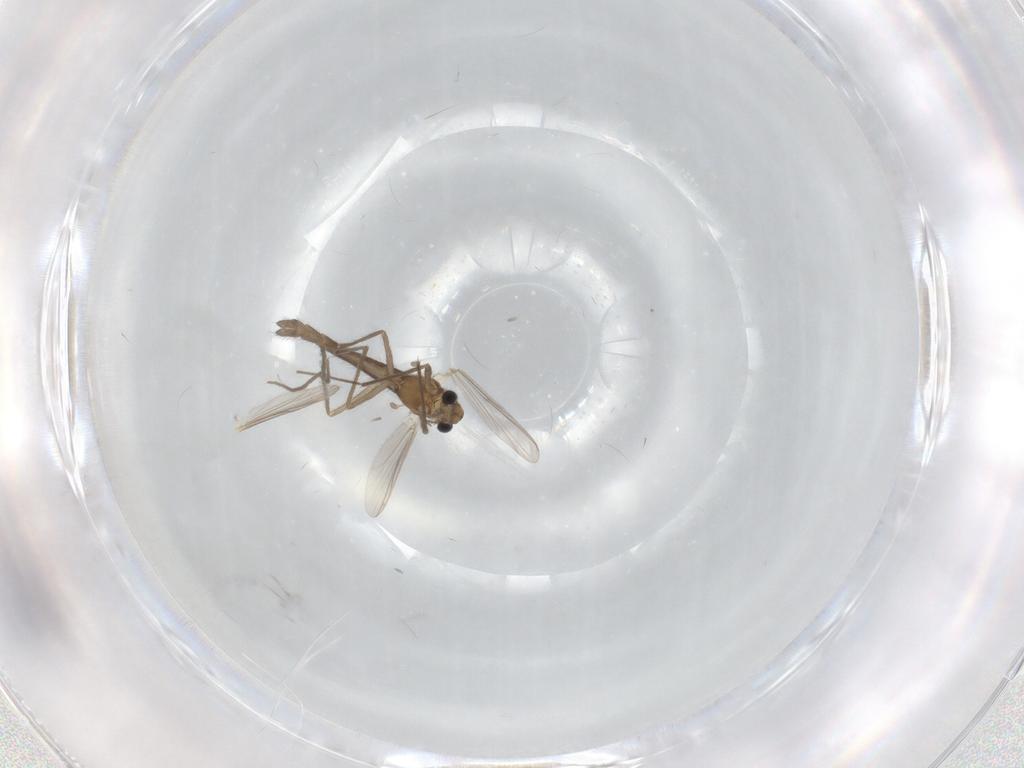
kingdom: Animalia
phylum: Arthropoda
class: Insecta
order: Diptera
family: Chironomidae
